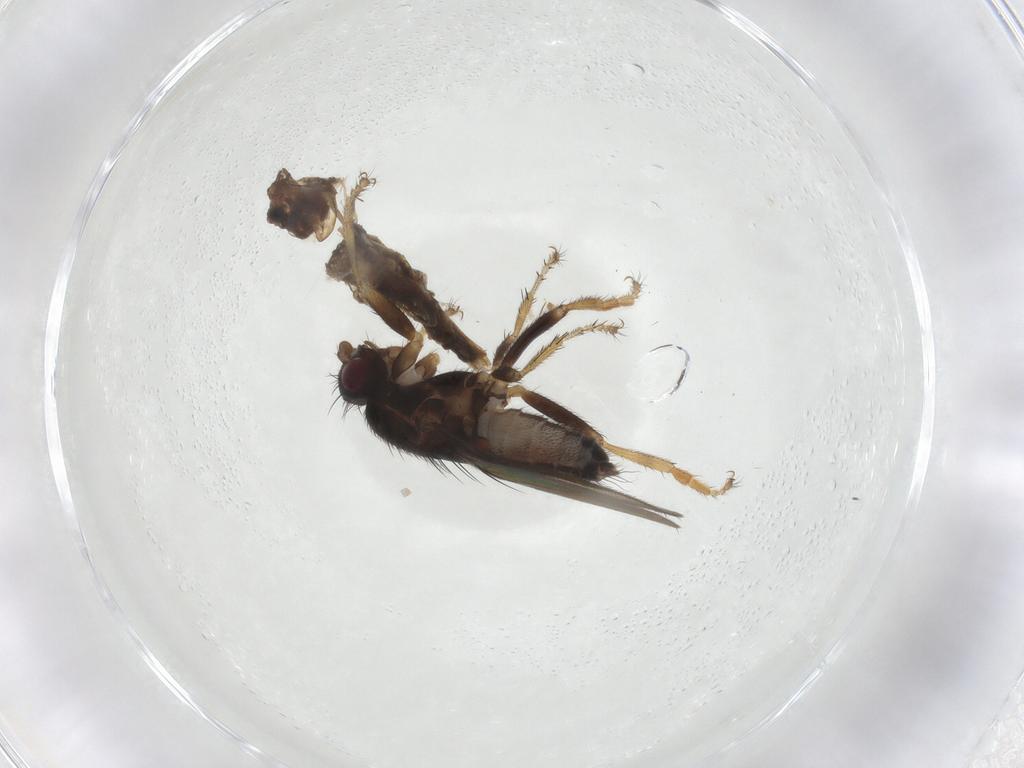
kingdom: Animalia
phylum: Arthropoda
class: Insecta
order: Diptera
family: Sphaeroceridae
